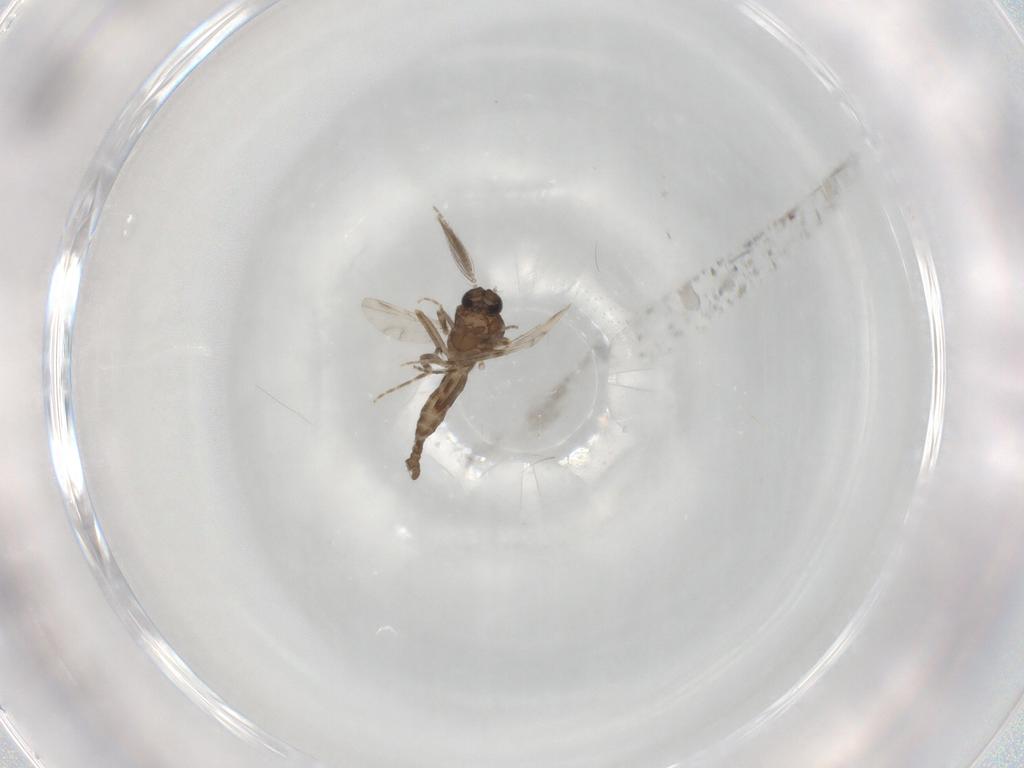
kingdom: Animalia
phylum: Arthropoda
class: Insecta
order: Diptera
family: Ceratopogonidae
